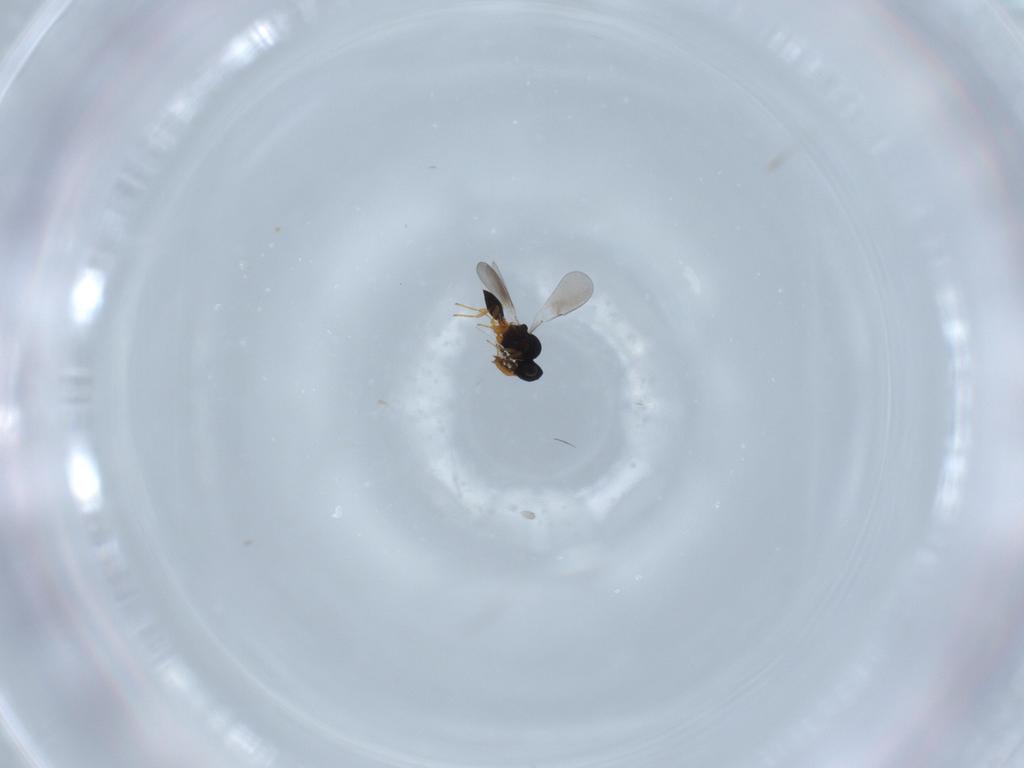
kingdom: Animalia
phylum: Arthropoda
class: Insecta
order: Hymenoptera
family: Platygastridae
